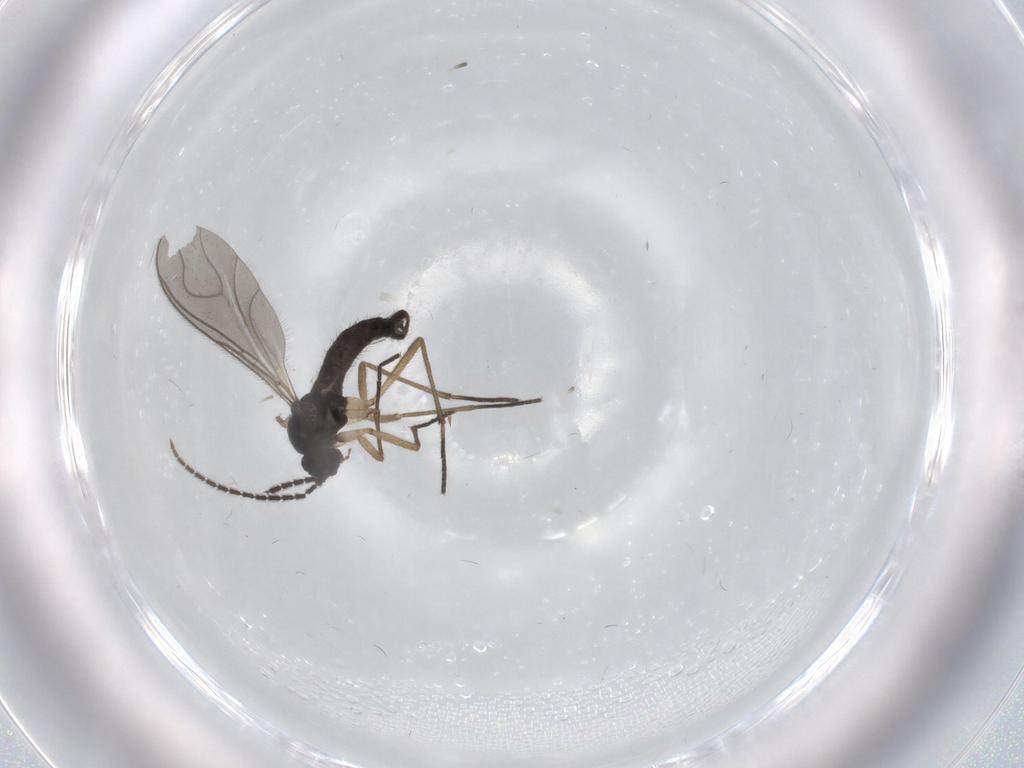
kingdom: Animalia
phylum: Arthropoda
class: Insecta
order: Diptera
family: Sciaridae
